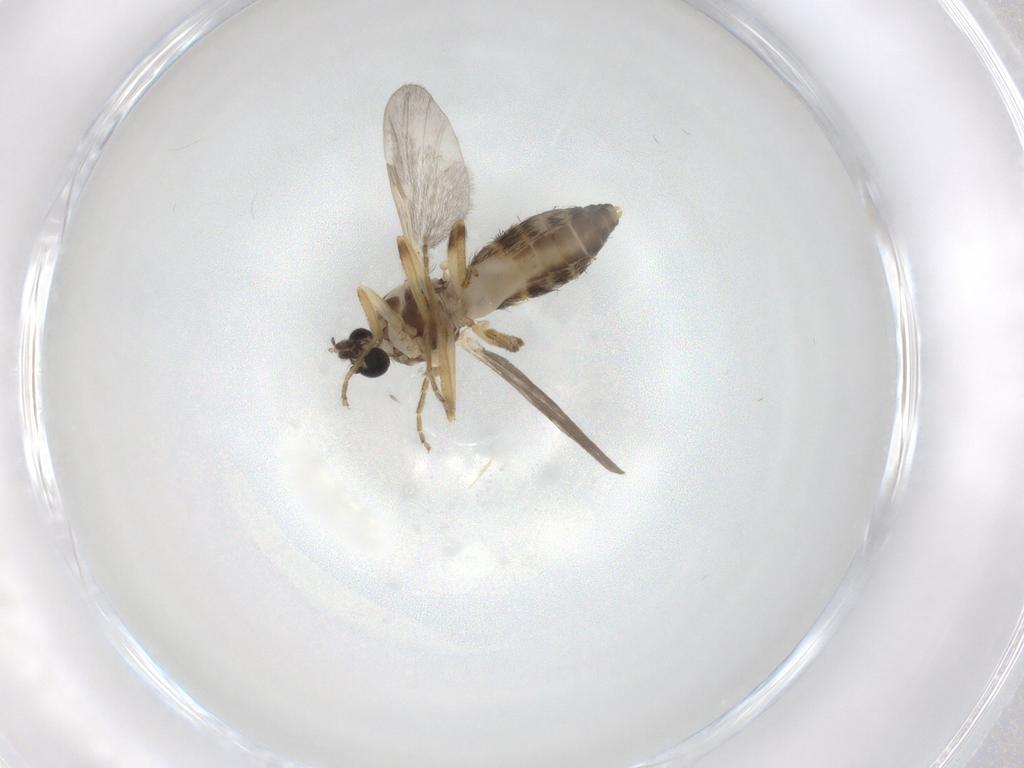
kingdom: Animalia
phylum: Arthropoda
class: Insecta
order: Diptera
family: Ceratopogonidae
